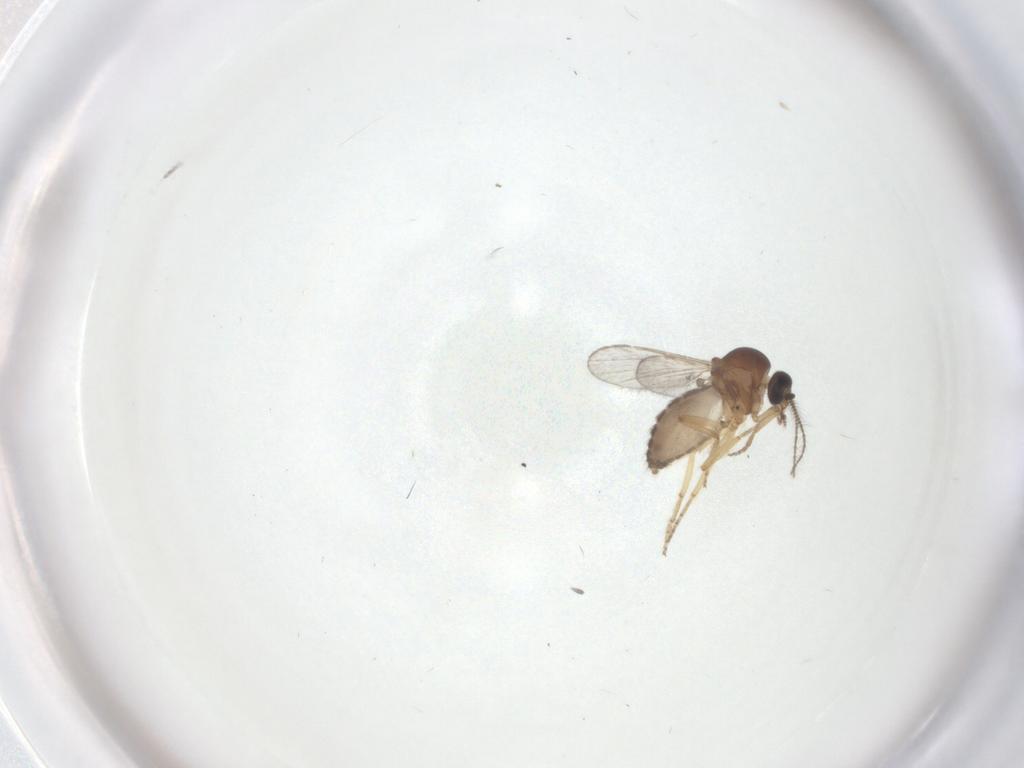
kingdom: Animalia
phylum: Arthropoda
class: Insecta
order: Diptera
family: Ceratopogonidae
